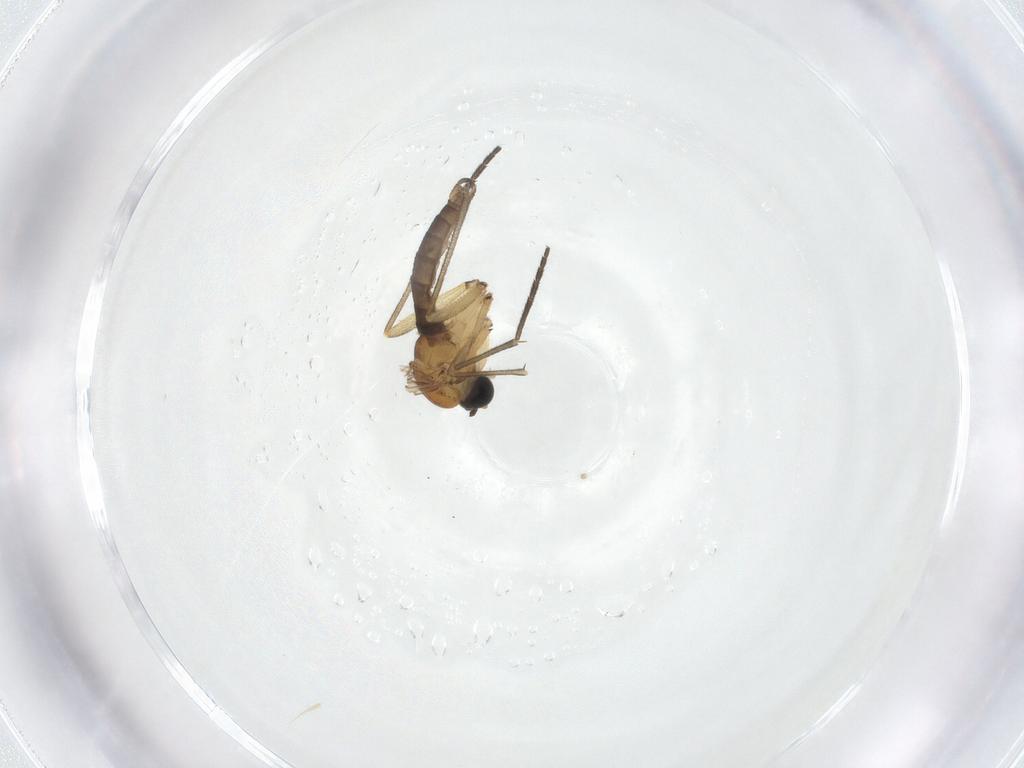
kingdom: Animalia
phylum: Arthropoda
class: Insecta
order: Diptera
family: Sciaridae
